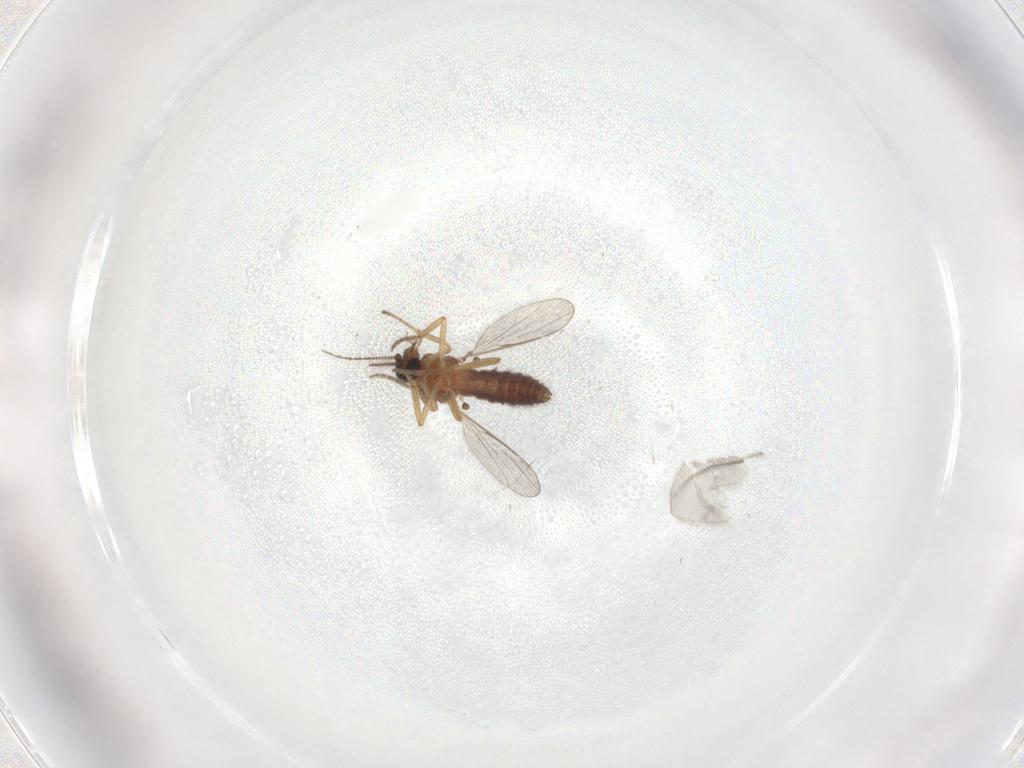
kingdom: Animalia
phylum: Arthropoda
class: Insecta
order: Diptera
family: Ceratopogonidae
